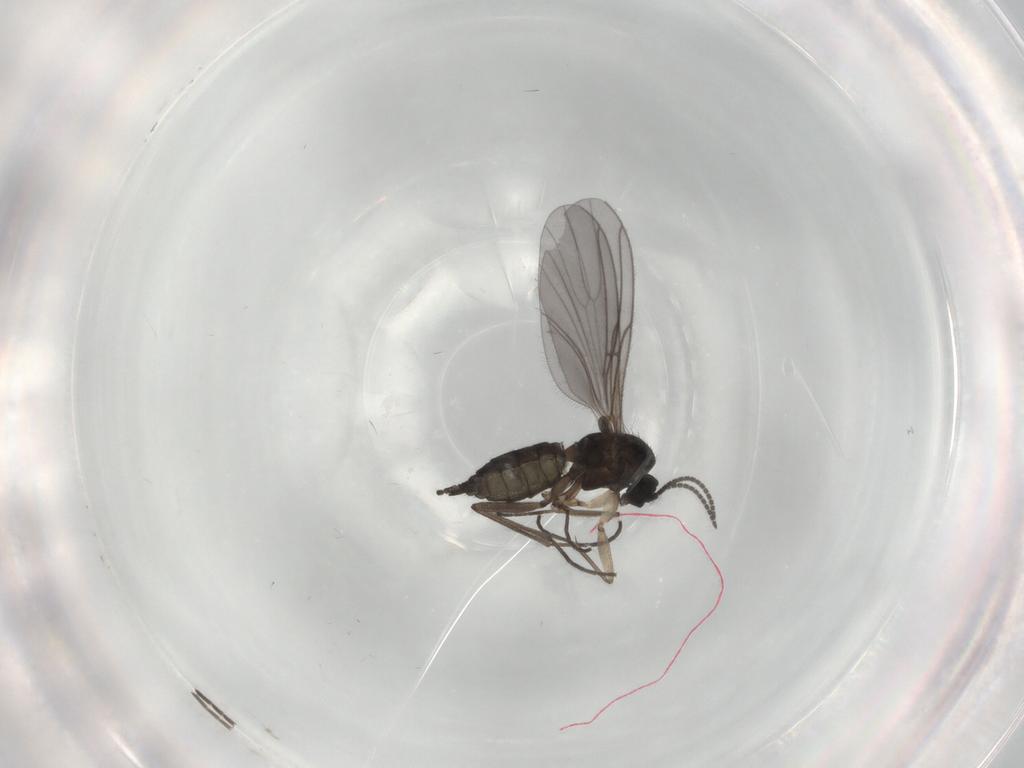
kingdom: Animalia
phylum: Arthropoda
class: Insecta
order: Diptera
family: Sciaridae
